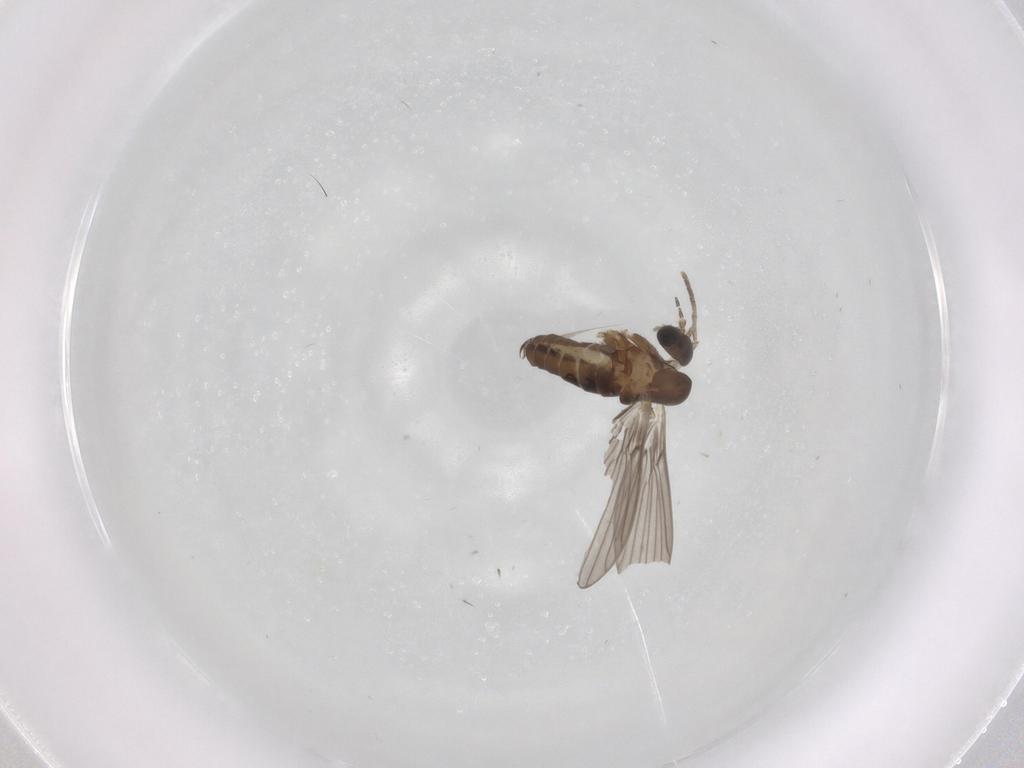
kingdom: Animalia
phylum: Arthropoda
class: Insecta
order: Diptera
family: Psychodidae
